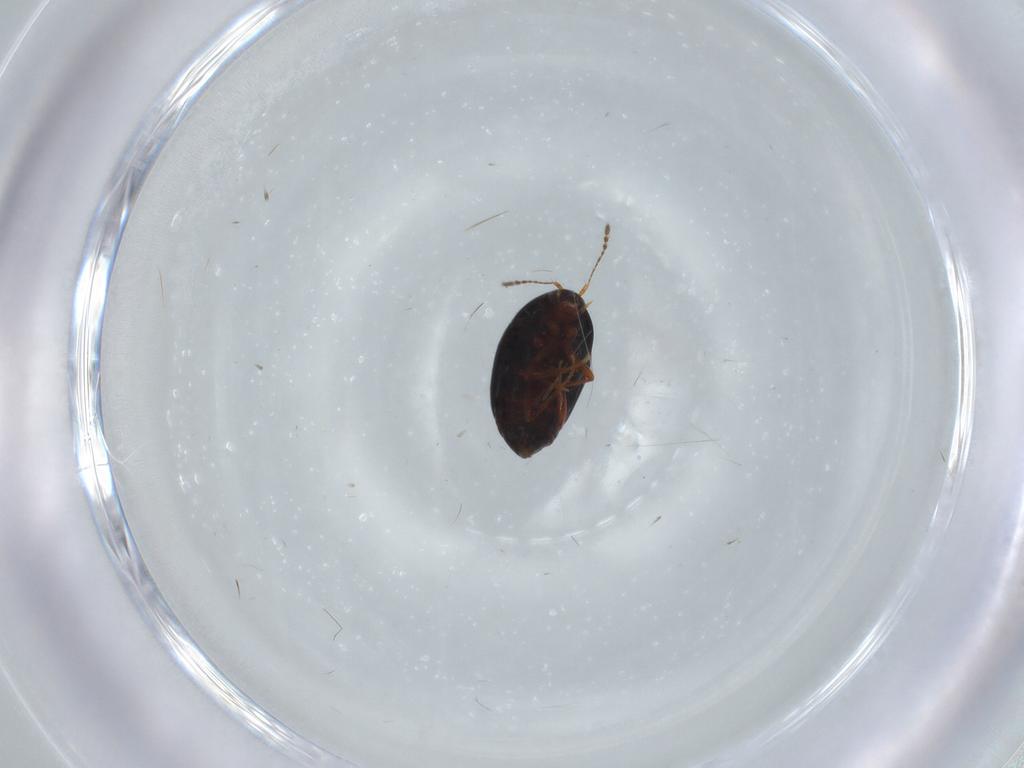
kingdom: Animalia
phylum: Arthropoda
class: Insecta
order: Coleoptera
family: Staphylinidae
